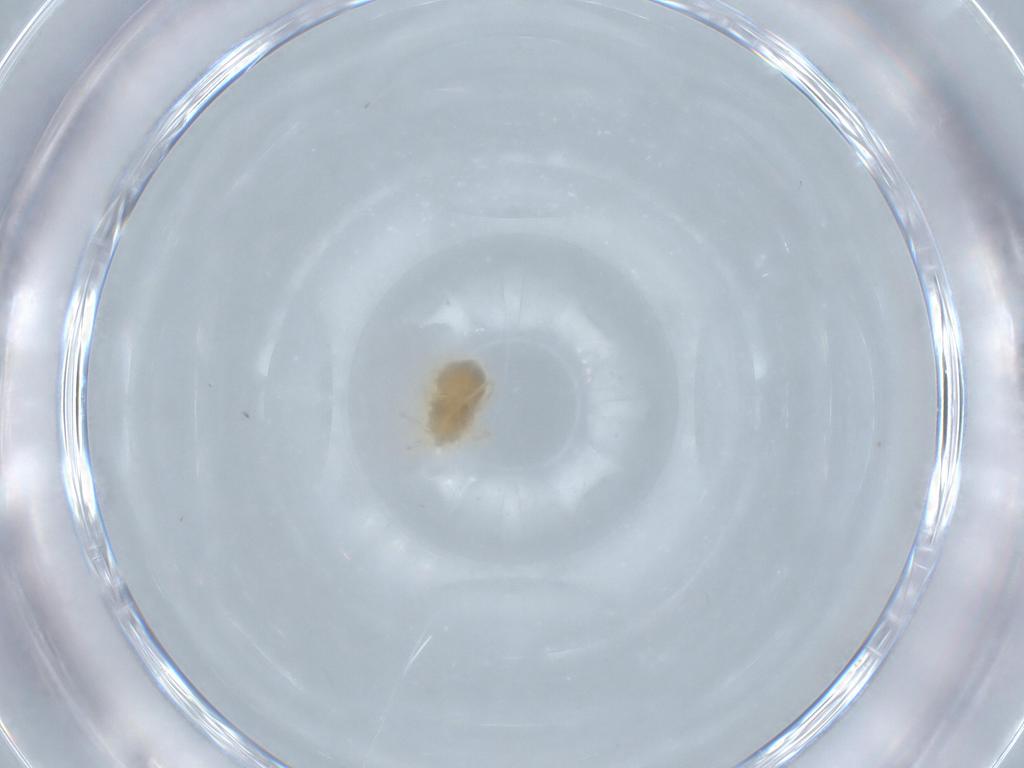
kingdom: Animalia
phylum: Arthropoda
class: Arachnida
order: Trombidiformes
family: Anystidae
